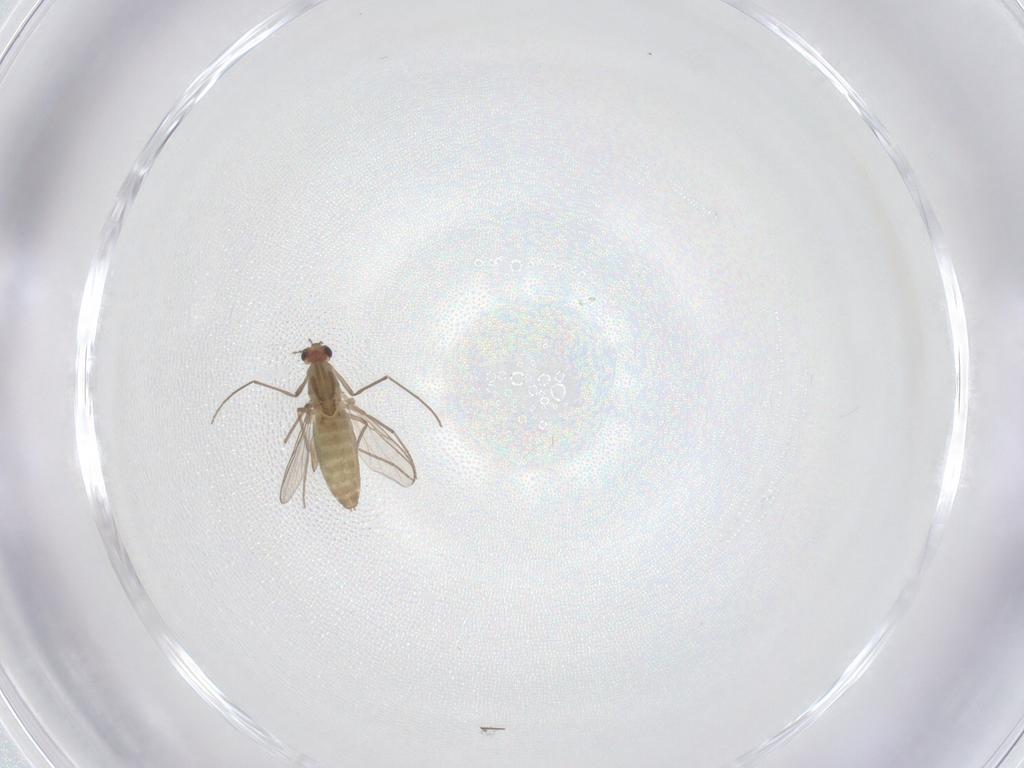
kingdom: Animalia
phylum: Arthropoda
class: Insecta
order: Diptera
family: Chironomidae
